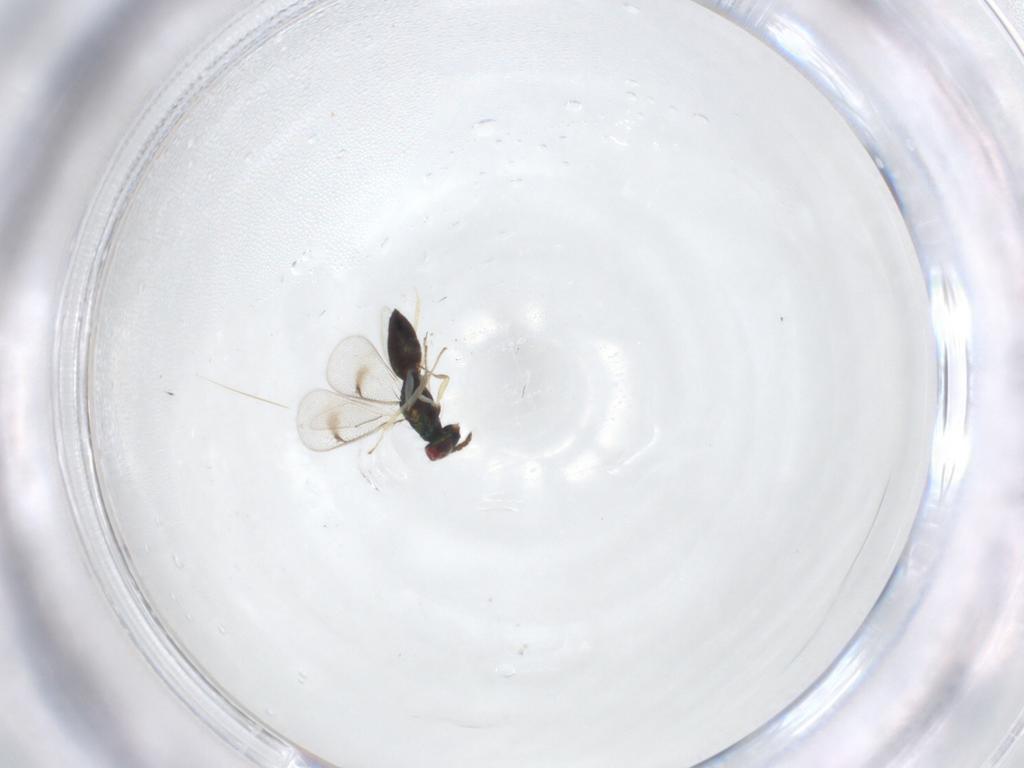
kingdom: Animalia
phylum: Arthropoda
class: Insecta
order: Hymenoptera
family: Eulophidae
